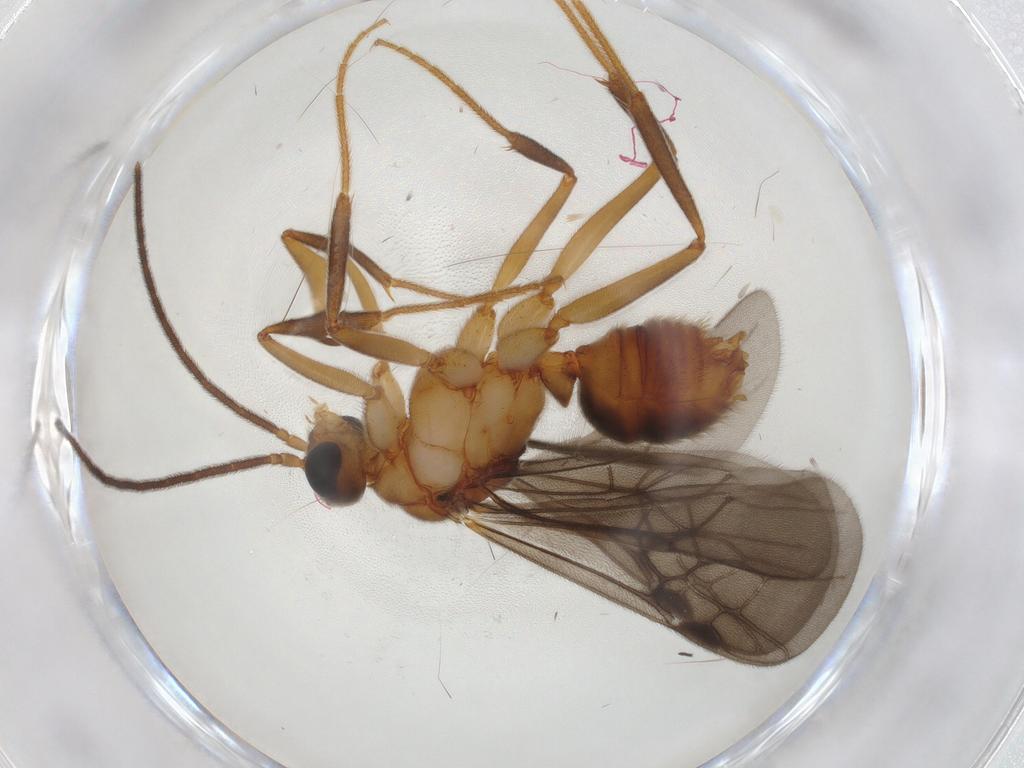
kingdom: Animalia
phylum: Arthropoda
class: Insecta
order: Hymenoptera
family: Formicidae
